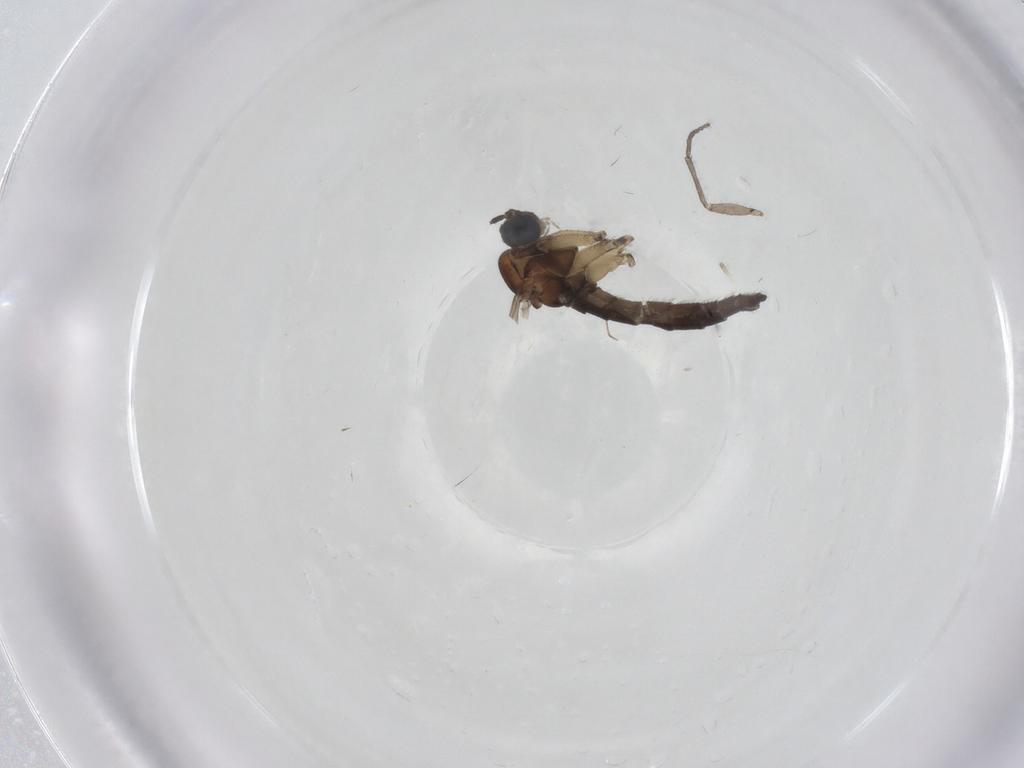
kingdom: Animalia
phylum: Arthropoda
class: Insecta
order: Diptera
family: Sciaridae
